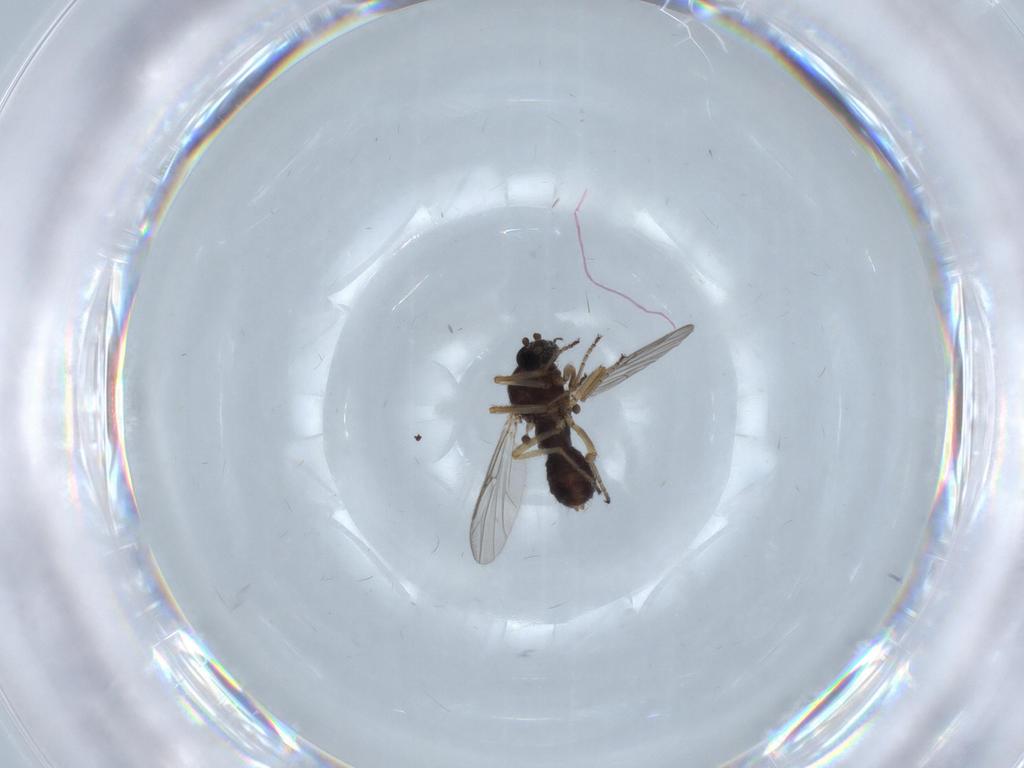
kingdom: Animalia
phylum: Arthropoda
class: Insecta
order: Diptera
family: Ceratopogonidae
